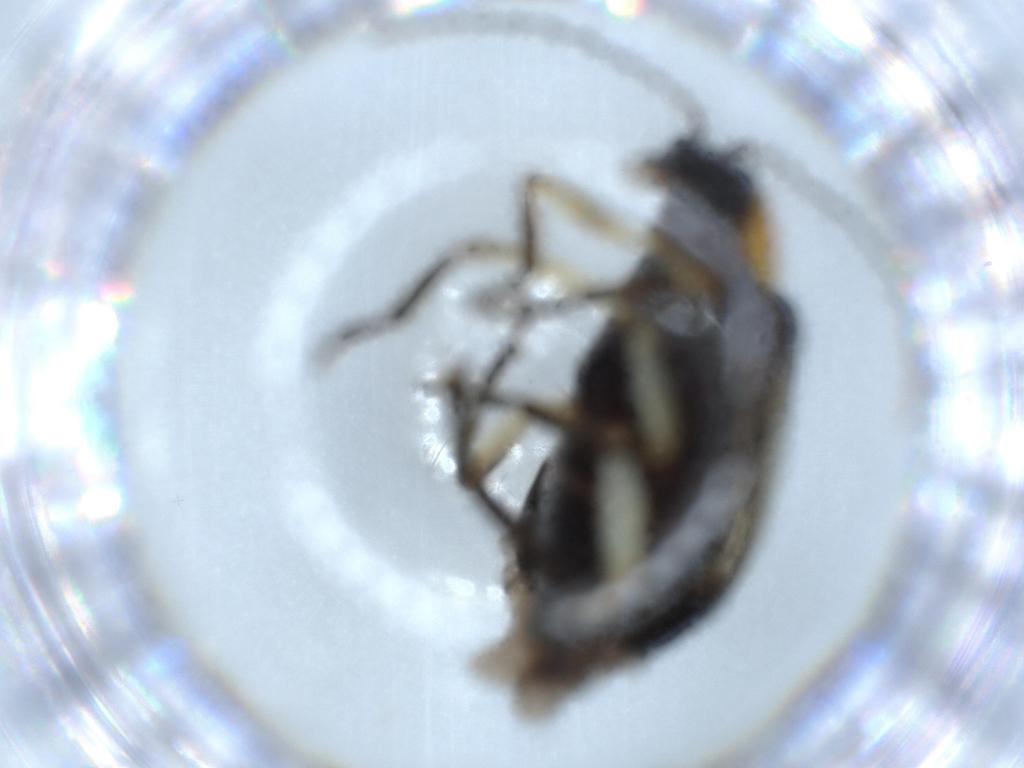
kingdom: Animalia
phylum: Arthropoda
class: Insecta
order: Coleoptera
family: Chrysomelidae
